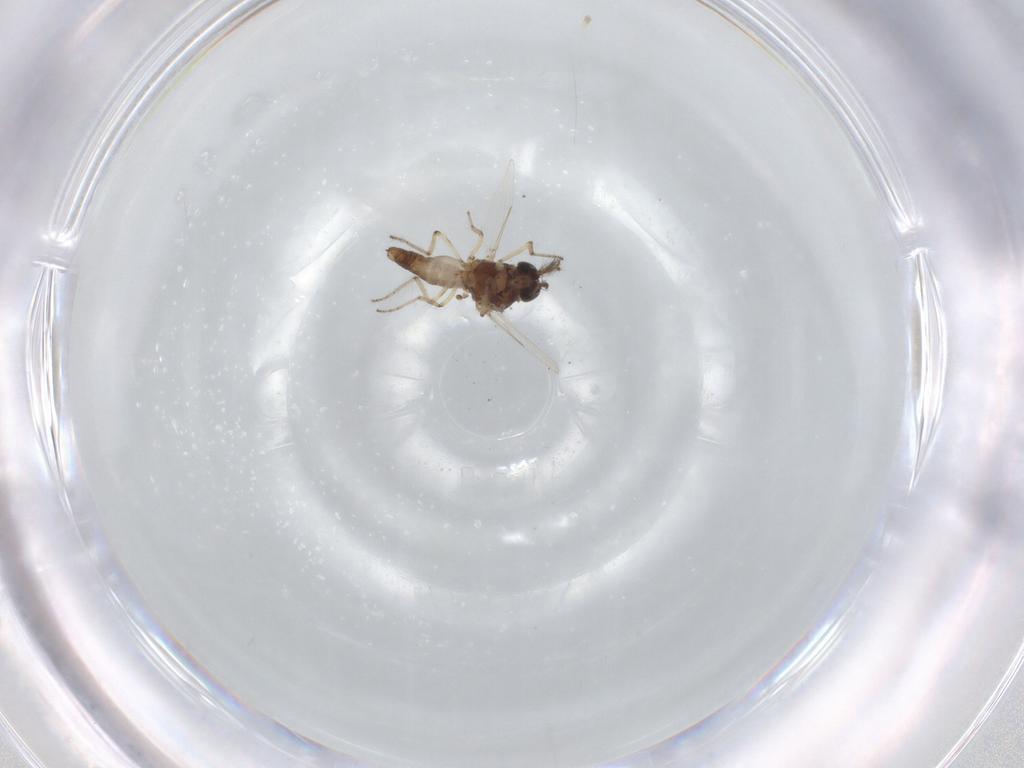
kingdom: Animalia
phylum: Arthropoda
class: Insecta
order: Diptera
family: Ceratopogonidae
